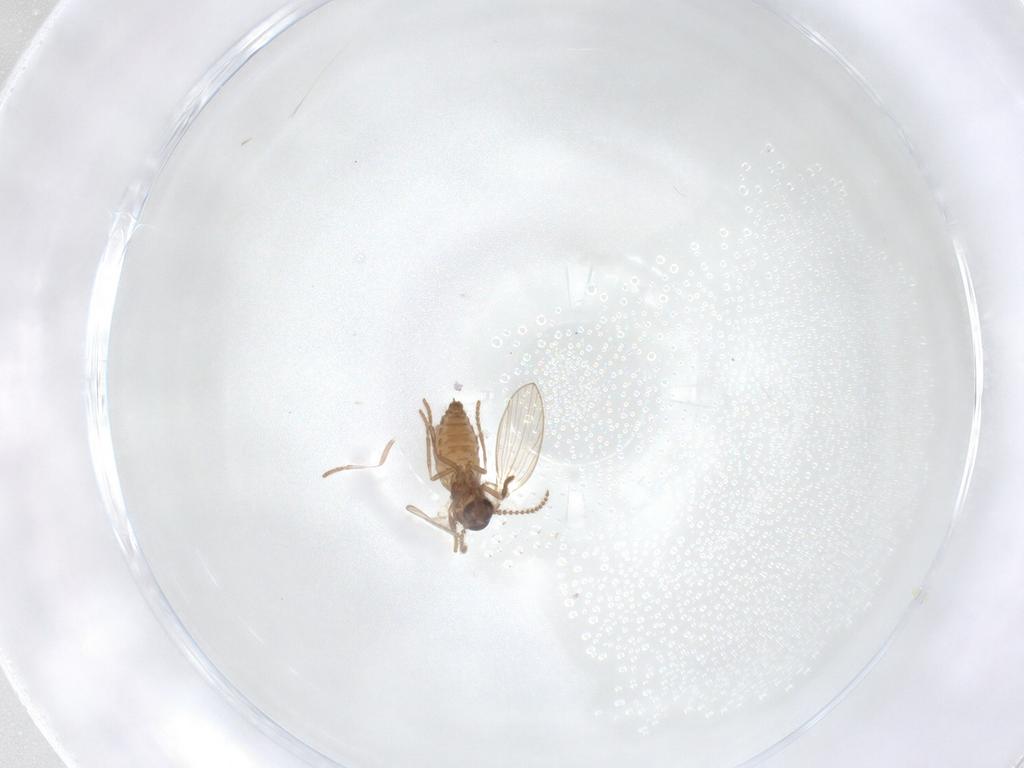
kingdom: Animalia
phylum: Arthropoda
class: Insecta
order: Diptera
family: Psychodidae
